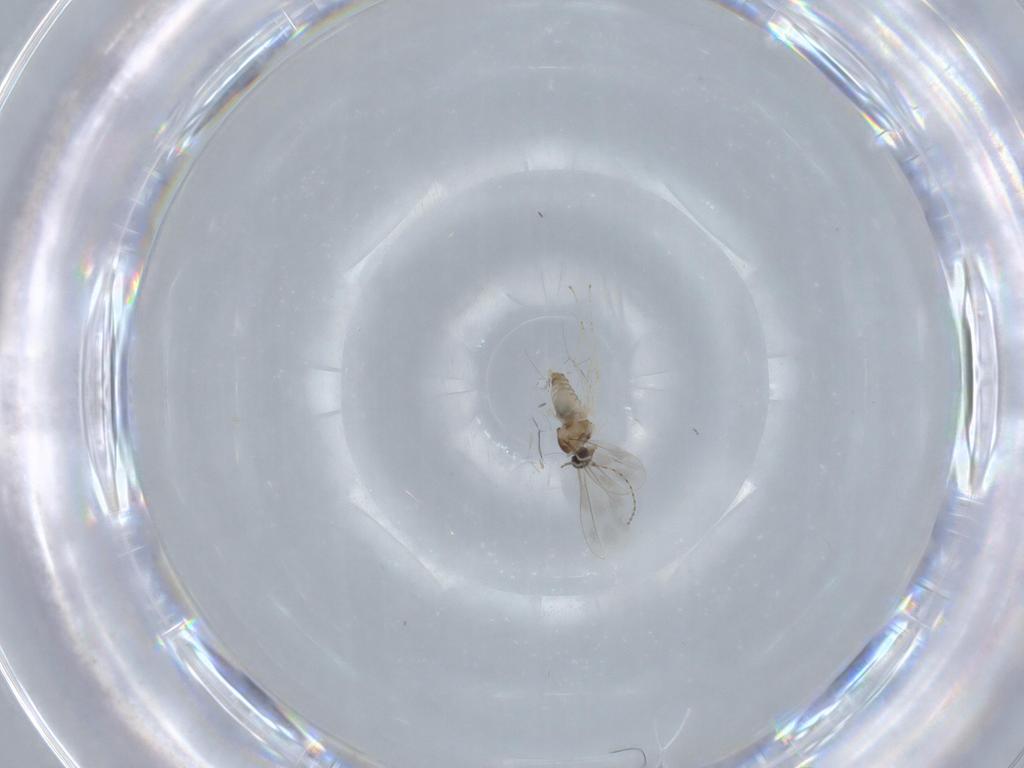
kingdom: Animalia
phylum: Arthropoda
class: Insecta
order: Diptera
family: Cecidomyiidae
